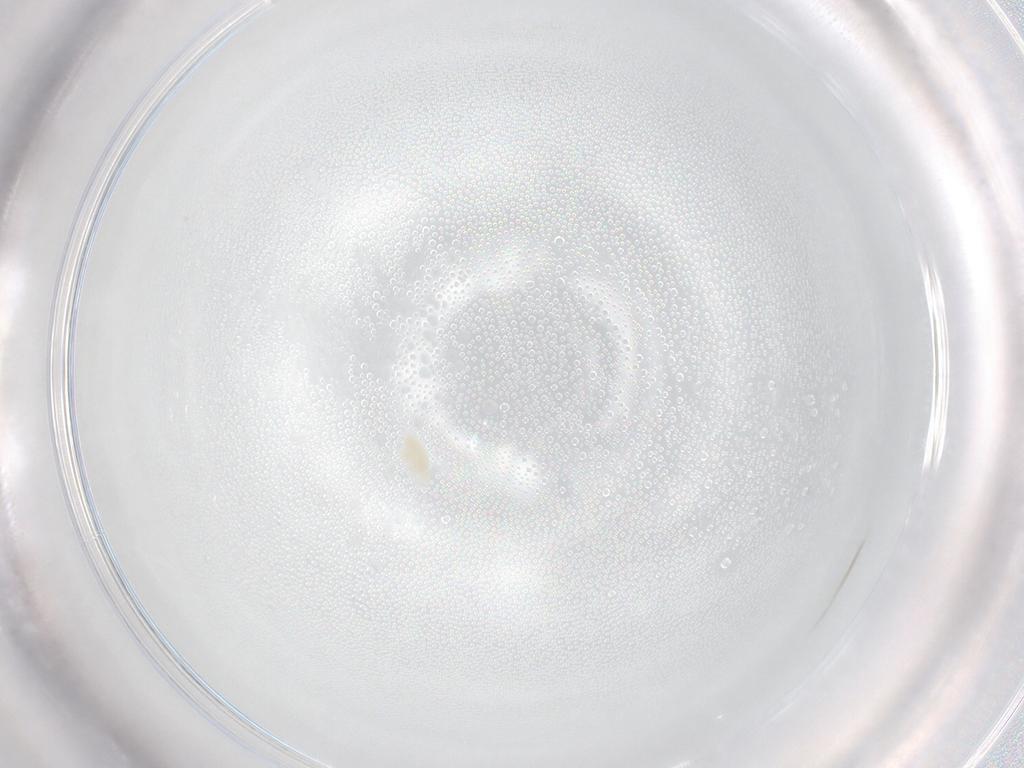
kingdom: Animalia
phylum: Arthropoda
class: Arachnida
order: Trombidiformes
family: Eupodidae
